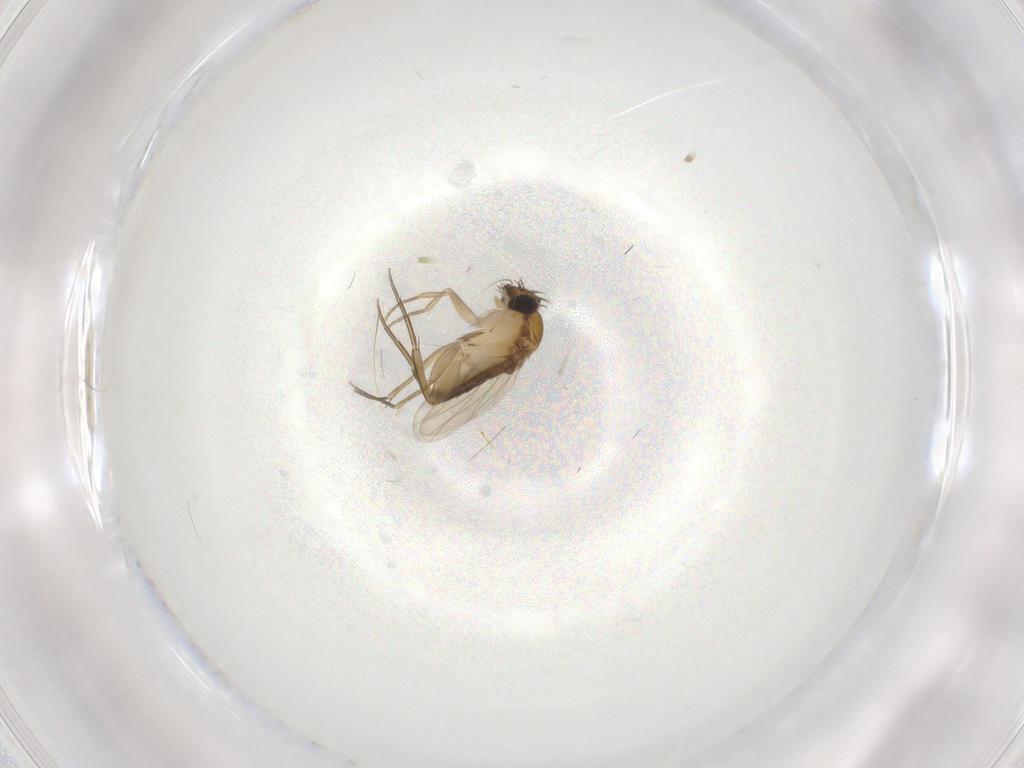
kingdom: Animalia
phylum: Arthropoda
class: Insecta
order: Diptera
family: Phoridae
